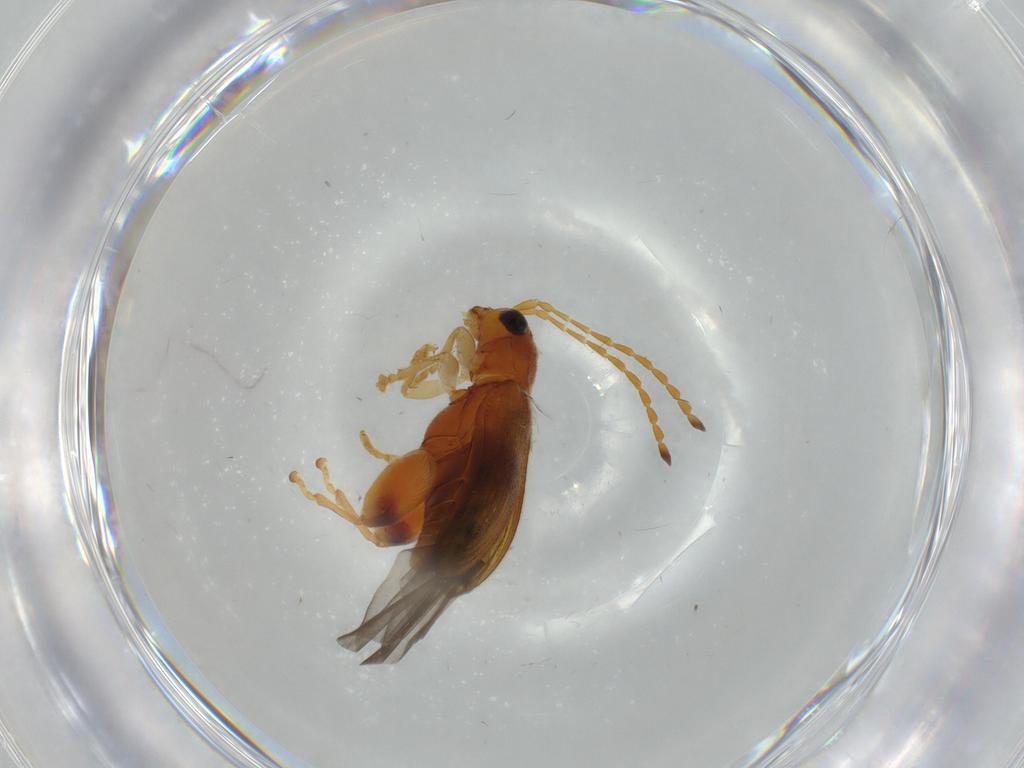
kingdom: Animalia
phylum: Arthropoda
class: Insecta
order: Coleoptera
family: Chrysomelidae
